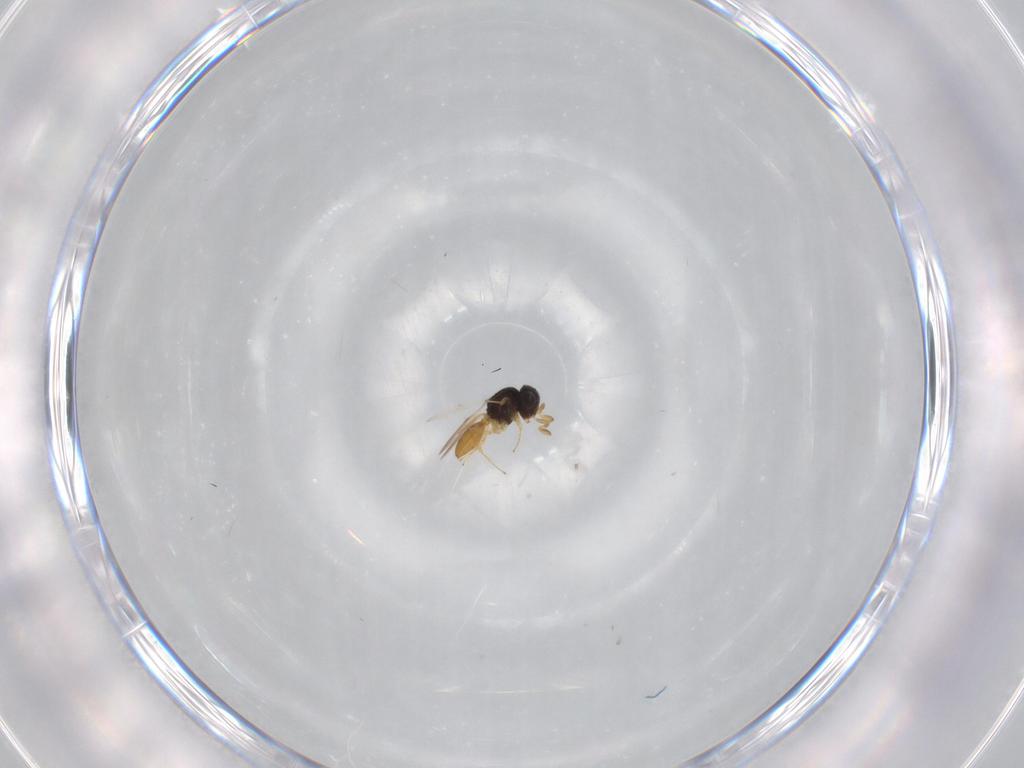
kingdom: Animalia
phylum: Arthropoda
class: Insecta
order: Hymenoptera
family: Scelionidae
